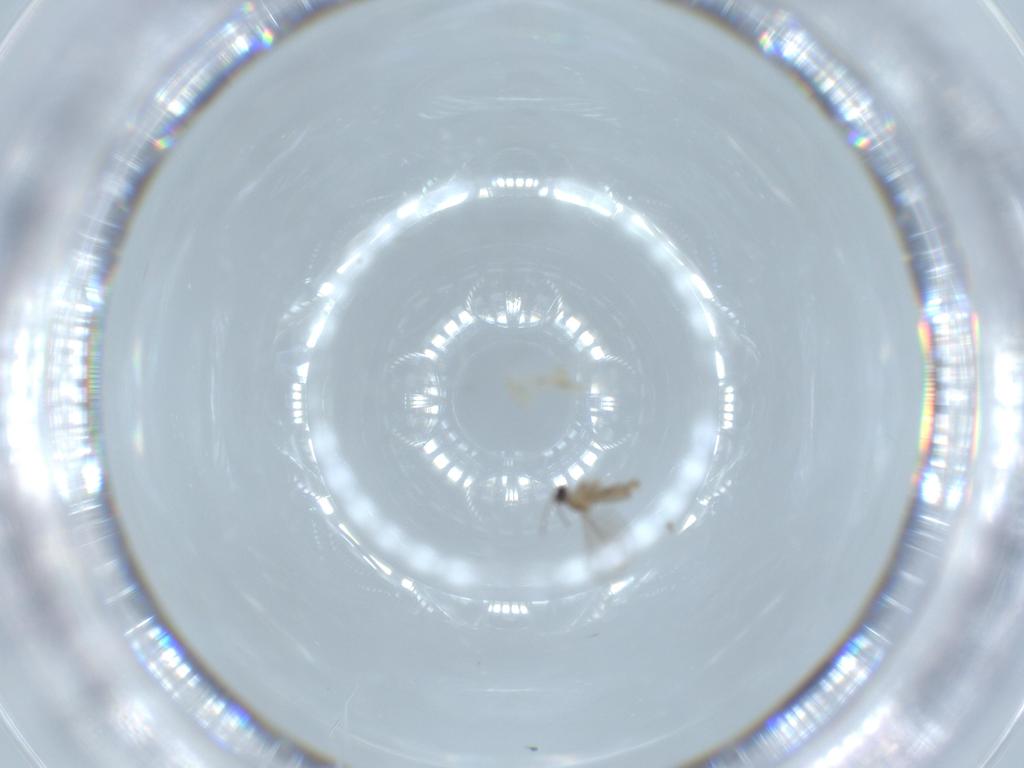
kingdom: Animalia
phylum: Arthropoda
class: Insecta
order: Diptera
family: Cecidomyiidae
